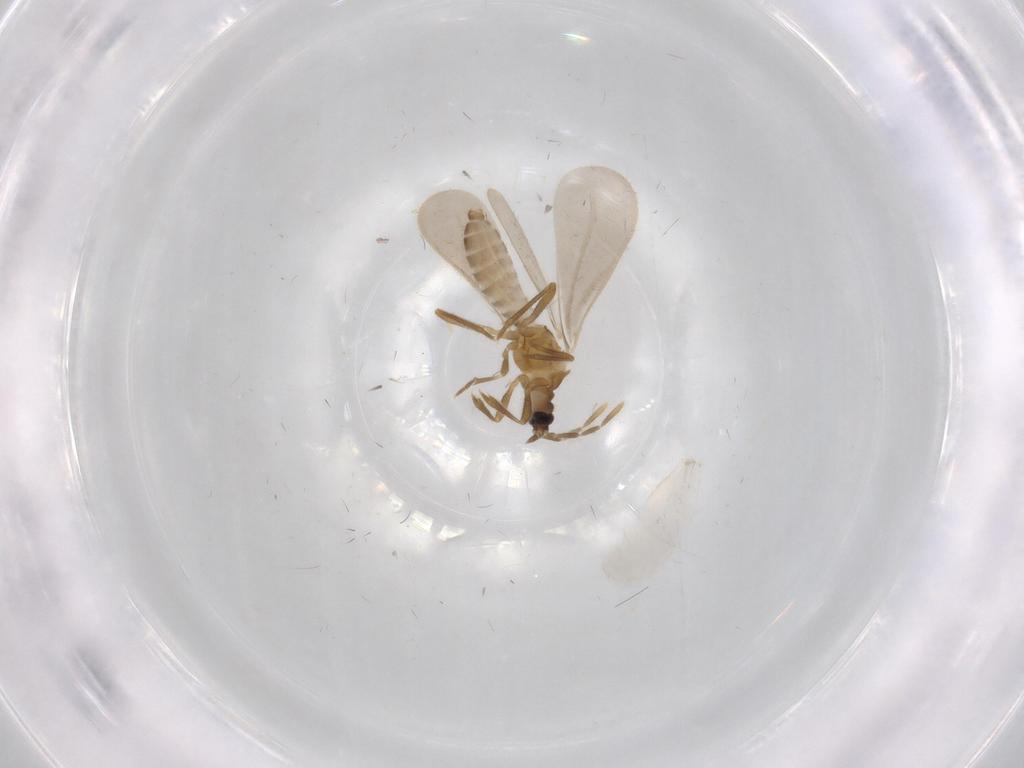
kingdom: Animalia
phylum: Arthropoda
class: Insecta
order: Hemiptera
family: Enicocephalidae
